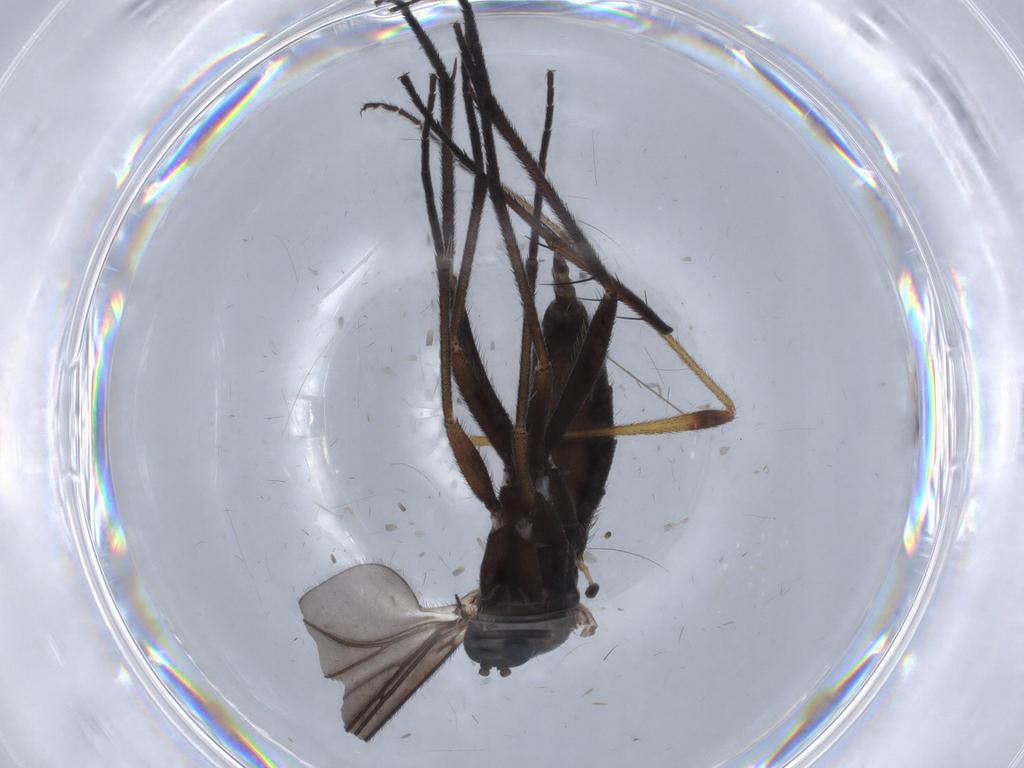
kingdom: Animalia
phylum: Arthropoda
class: Insecta
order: Diptera
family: Sciaridae
